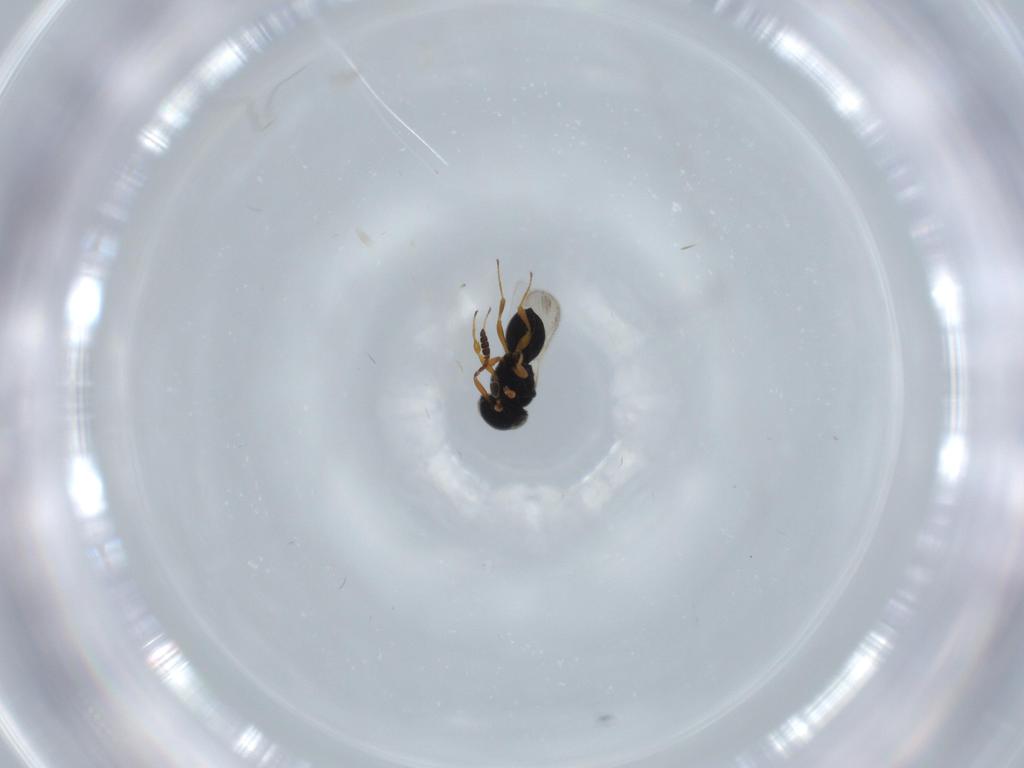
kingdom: Animalia
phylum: Arthropoda
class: Insecta
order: Hymenoptera
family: Scelionidae
